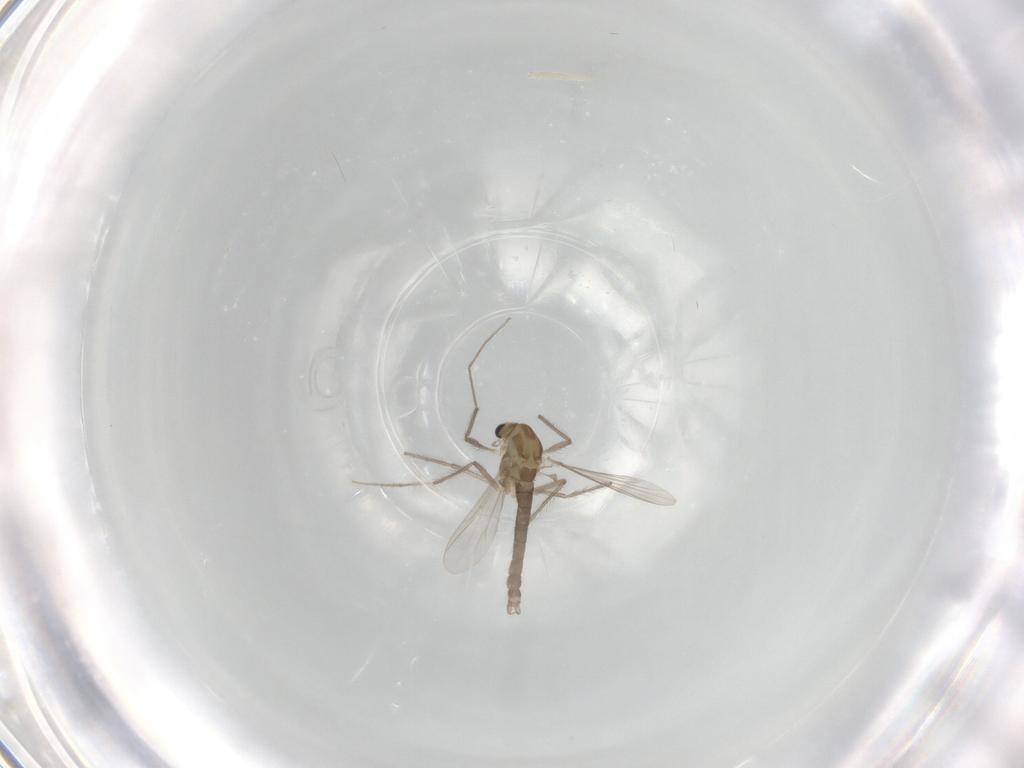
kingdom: Animalia
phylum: Arthropoda
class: Insecta
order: Diptera
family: Chironomidae
